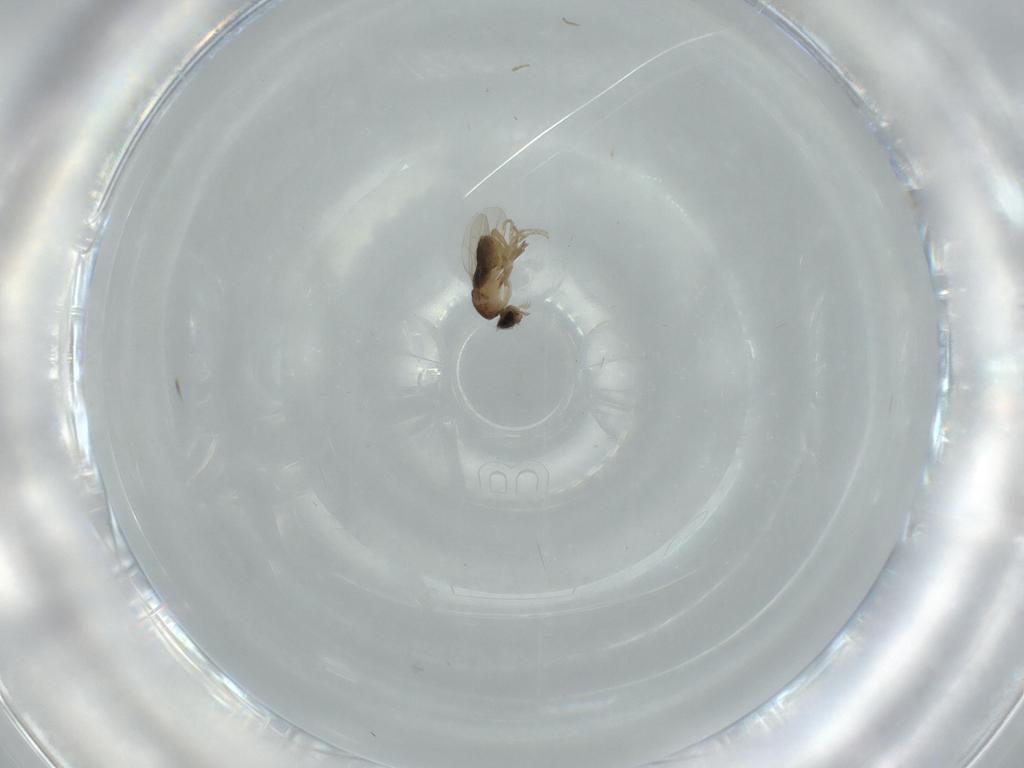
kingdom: Animalia
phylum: Arthropoda
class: Insecta
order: Diptera
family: Phoridae
